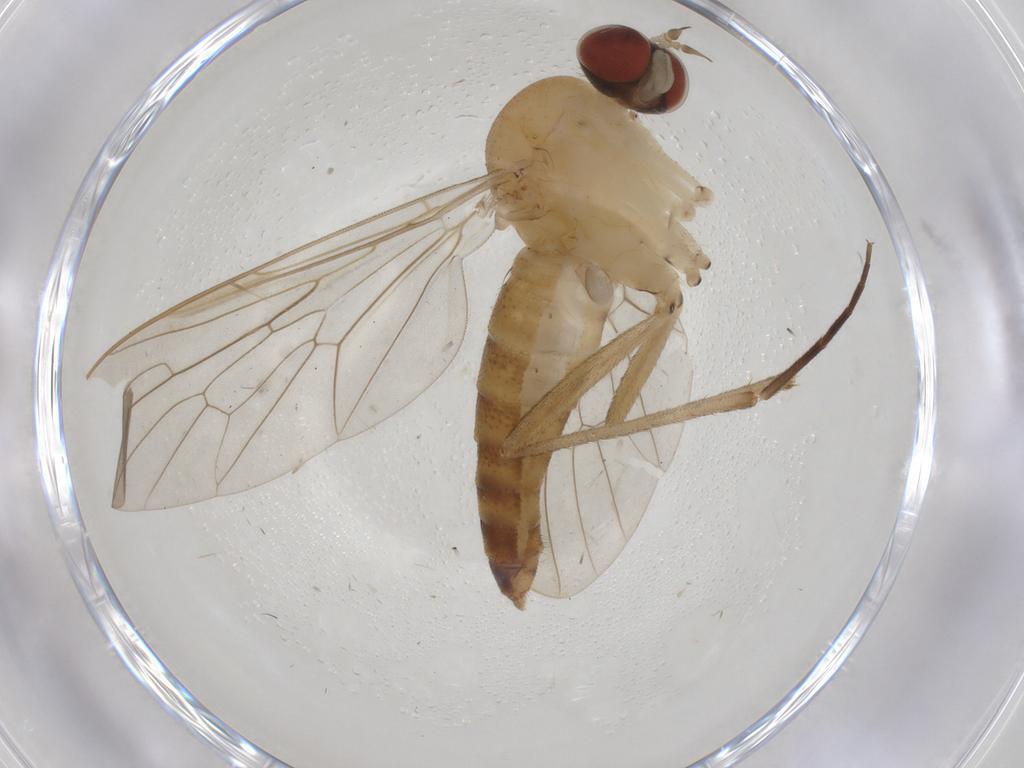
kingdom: Animalia
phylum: Arthropoda
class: Insecta
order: Diptera
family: Apsilocephalidae
